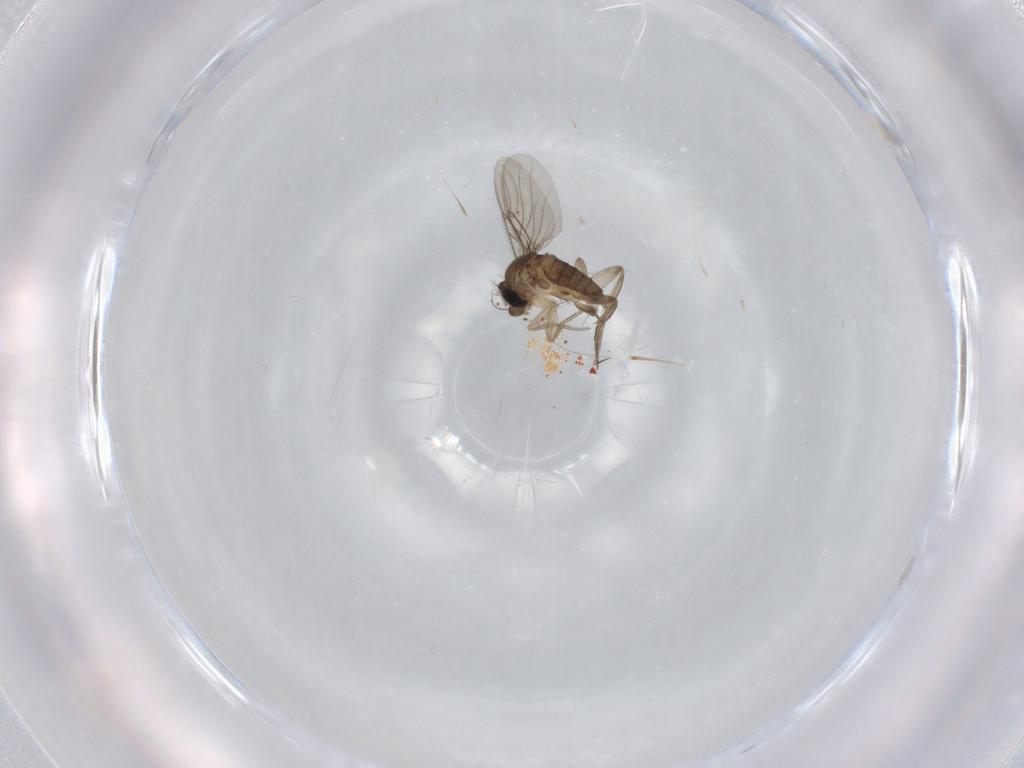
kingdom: Animalia
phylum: Arthropoda
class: Insecta
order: Diptera
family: Phoridae
